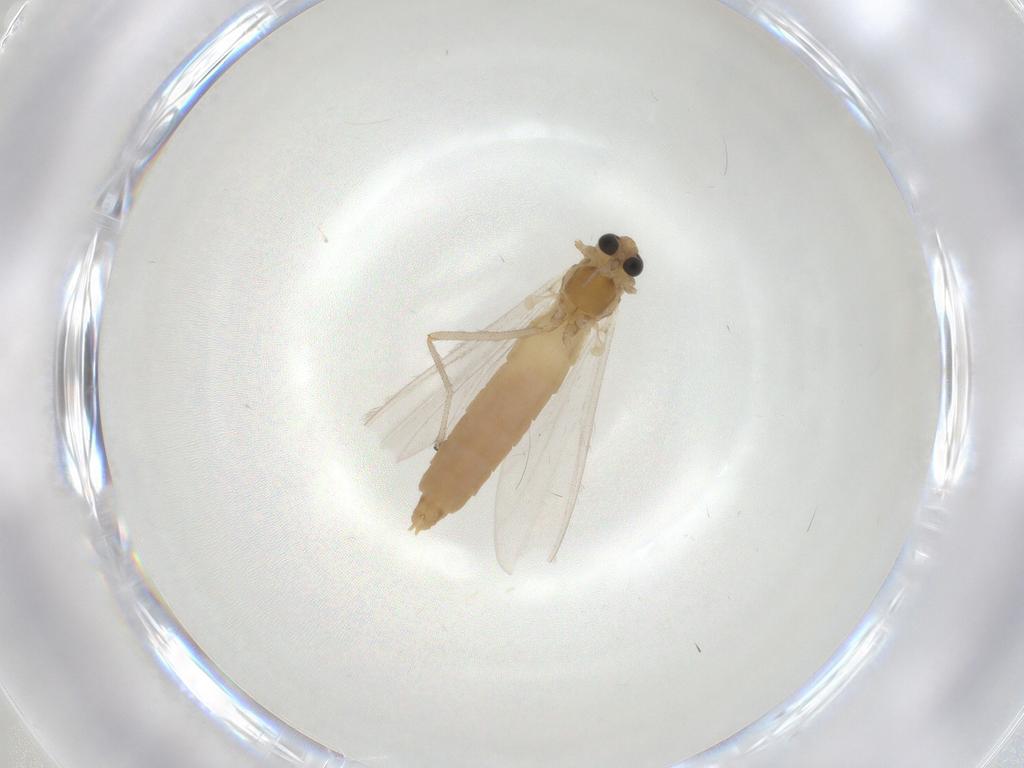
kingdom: Animalia
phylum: Arthropoda
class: Insecta
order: Diptera
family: Chironomidae
